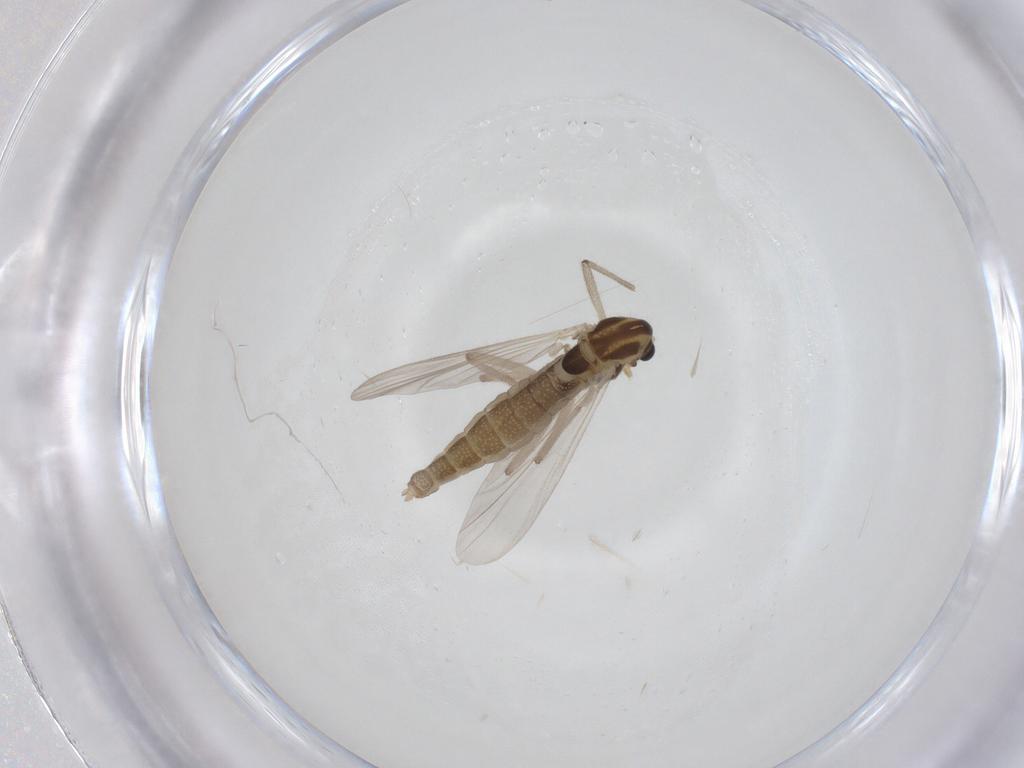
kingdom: Animalia
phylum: Arthropoda
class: Insecta
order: Diptera
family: Chironomidae
